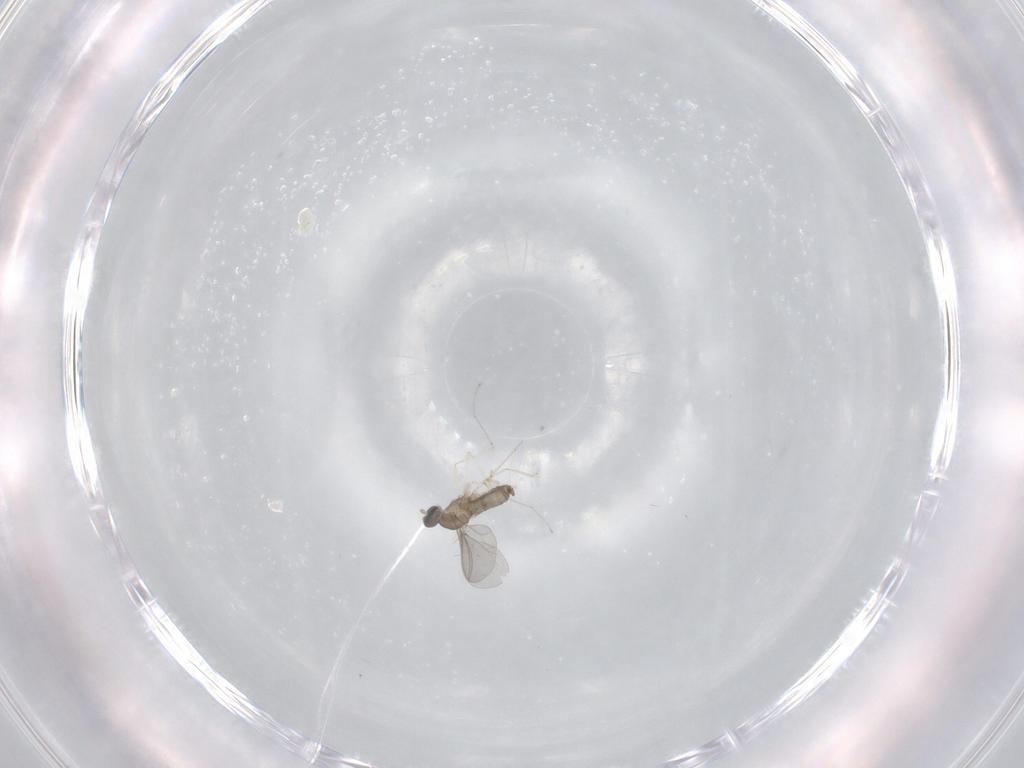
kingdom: Animalia
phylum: Arthropoda
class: Insecta
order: Diptera
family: Cecidomyiidae
